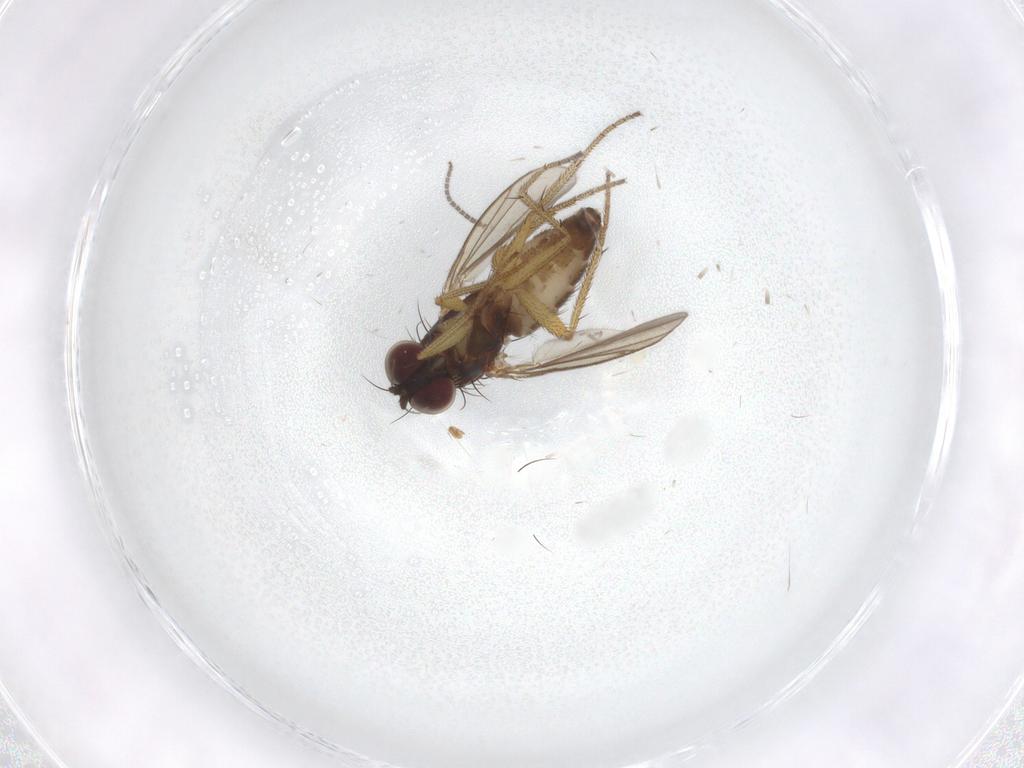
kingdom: Animalia
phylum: Arthropoda
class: Insecta
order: Diptera
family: Sciaridae
